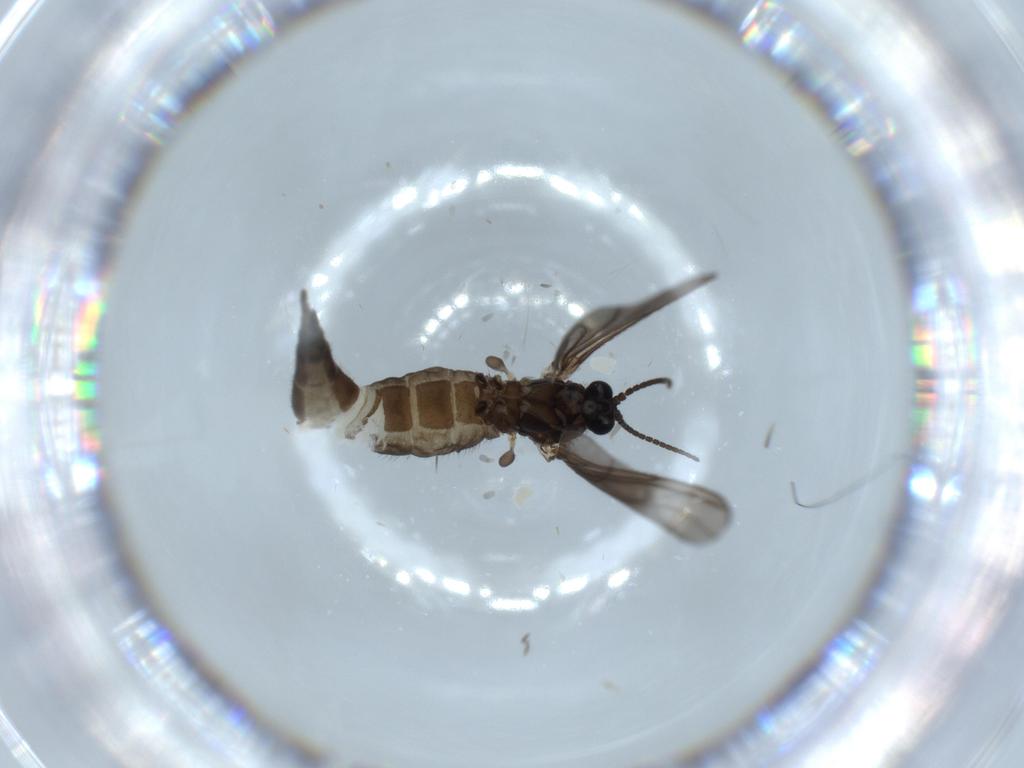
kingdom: Animalia
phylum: Arthropoda
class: Insecta
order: Diptera
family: Sciaridae
